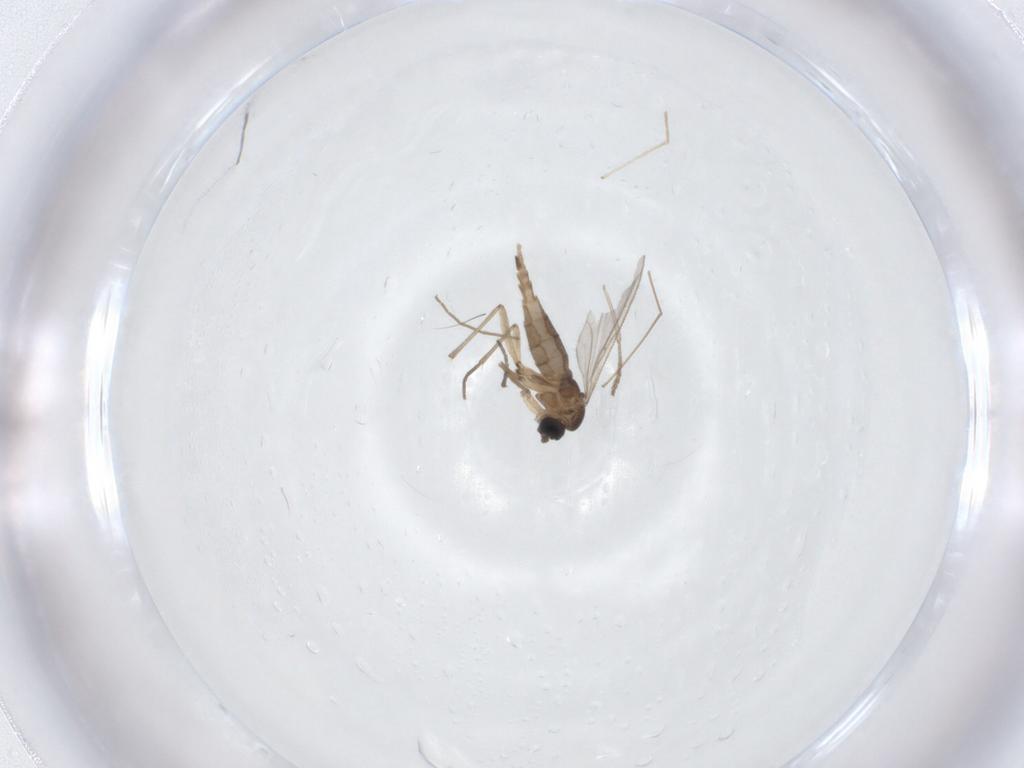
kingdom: Animalia
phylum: Arthropoda
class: Insecta
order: Diptera
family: Sciaridae
